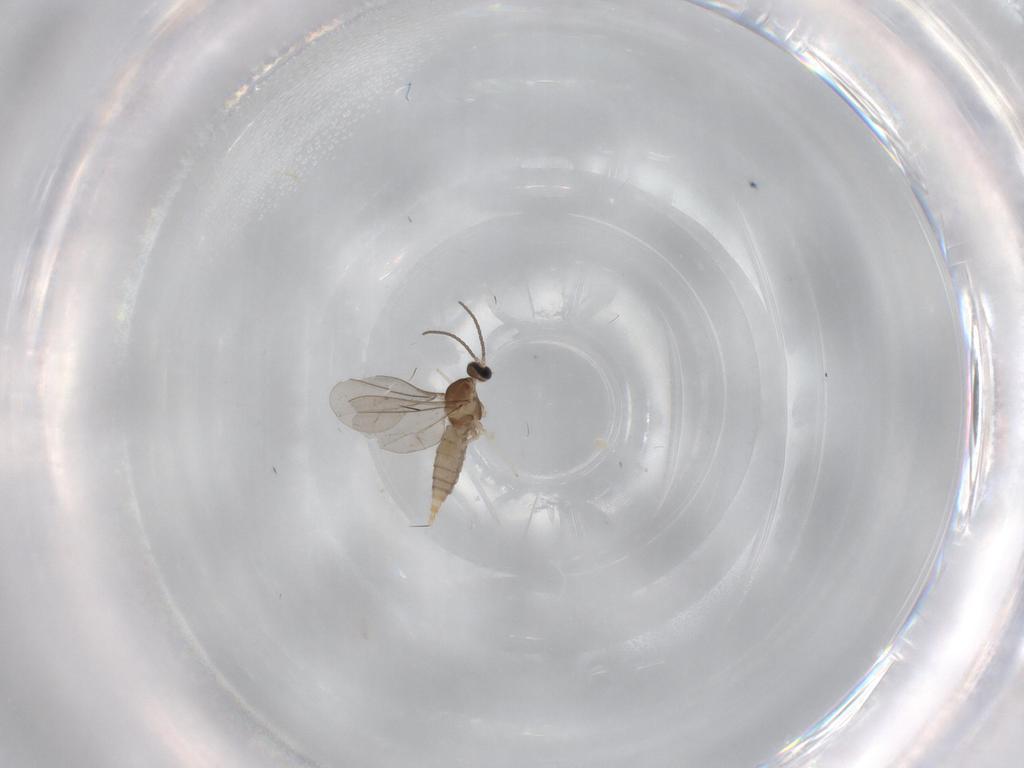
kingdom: Animalia
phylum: Arthropoda
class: Insecta
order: Diptera
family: Cecidomyiidae
